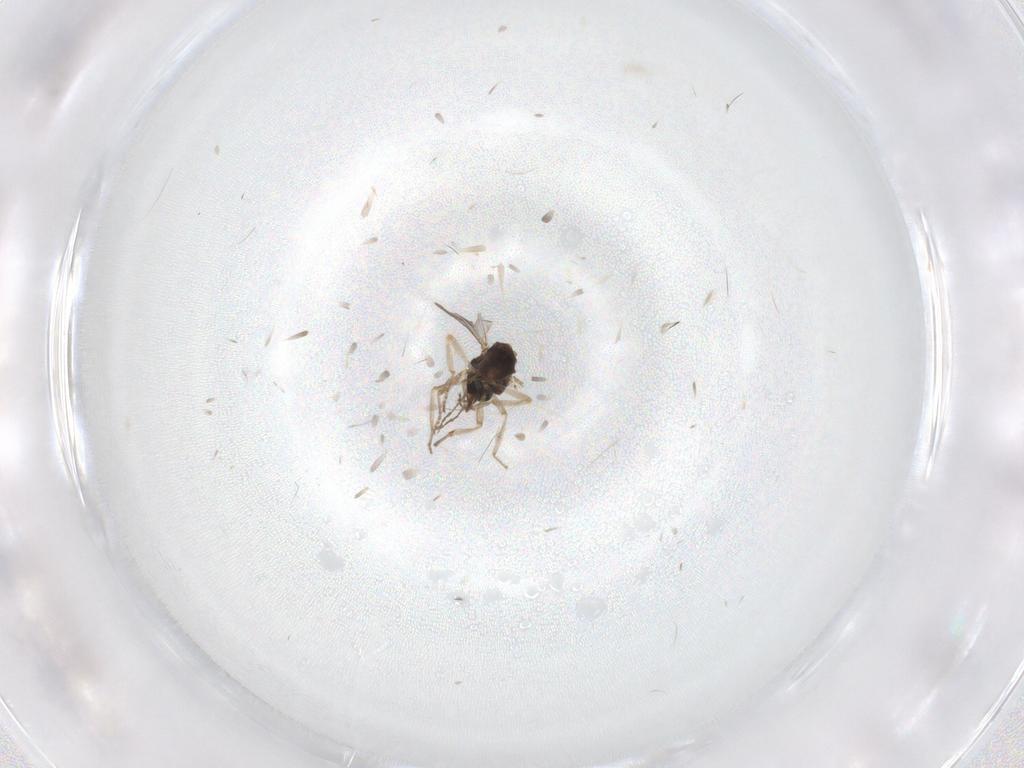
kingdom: Animalia
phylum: Arthropoda
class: Insecta
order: Diptera
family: Ceratopogonidae
